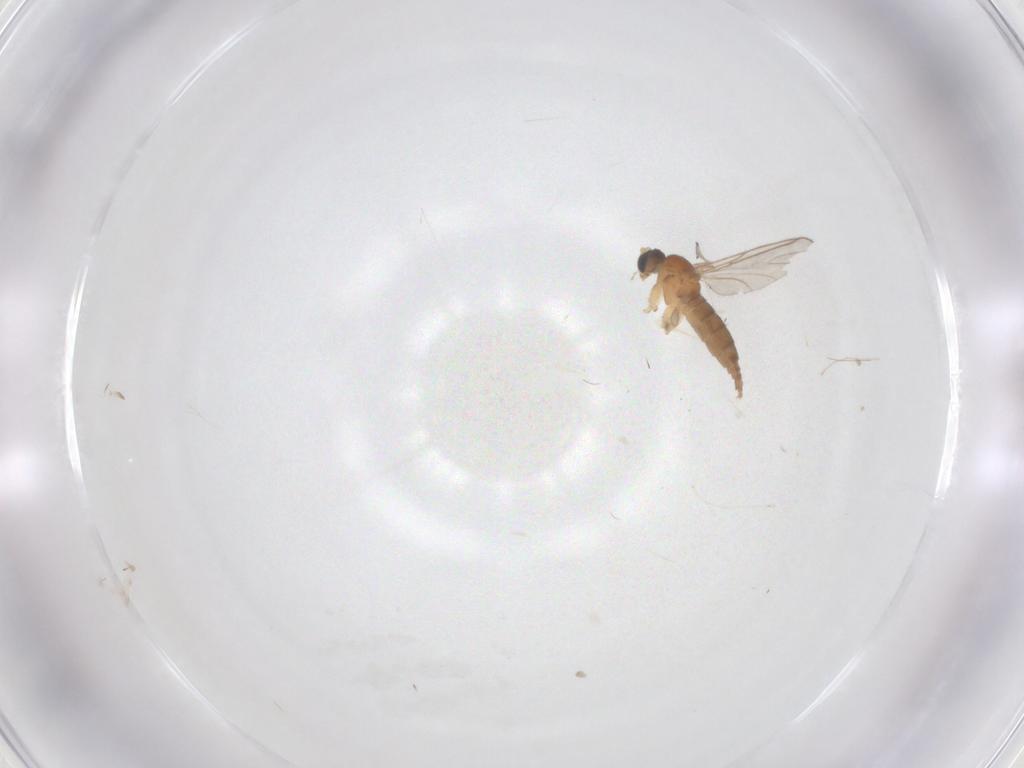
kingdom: Animalia
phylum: Arthropoda
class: Insecta
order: Diptera
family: Sciaridae
